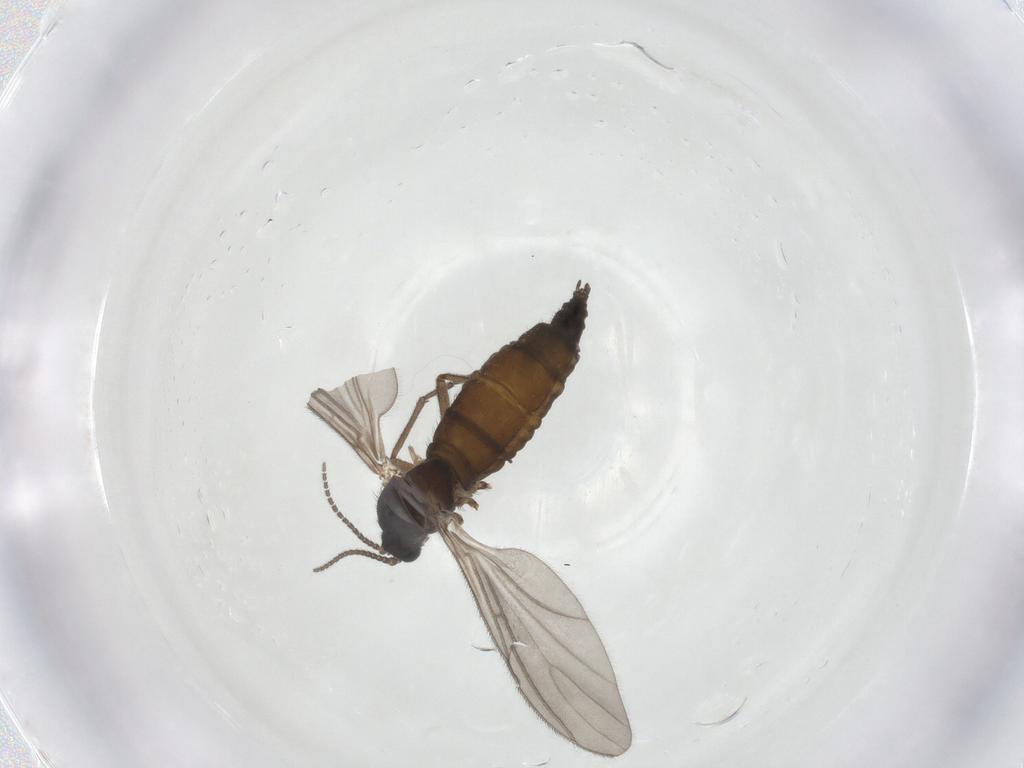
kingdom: Animalia
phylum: Arthropoda
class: Insecta
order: Diptera
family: Sciaridae
